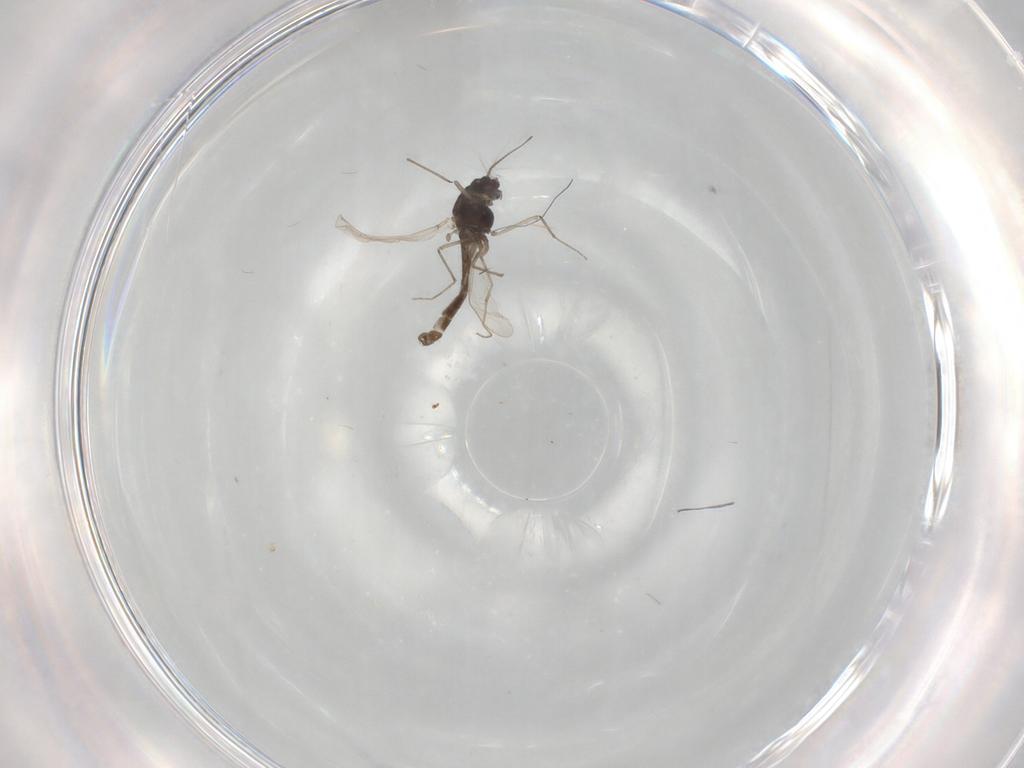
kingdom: Animalia
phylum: Arthropoda
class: Insecta
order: Diptera
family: Chironomidae
